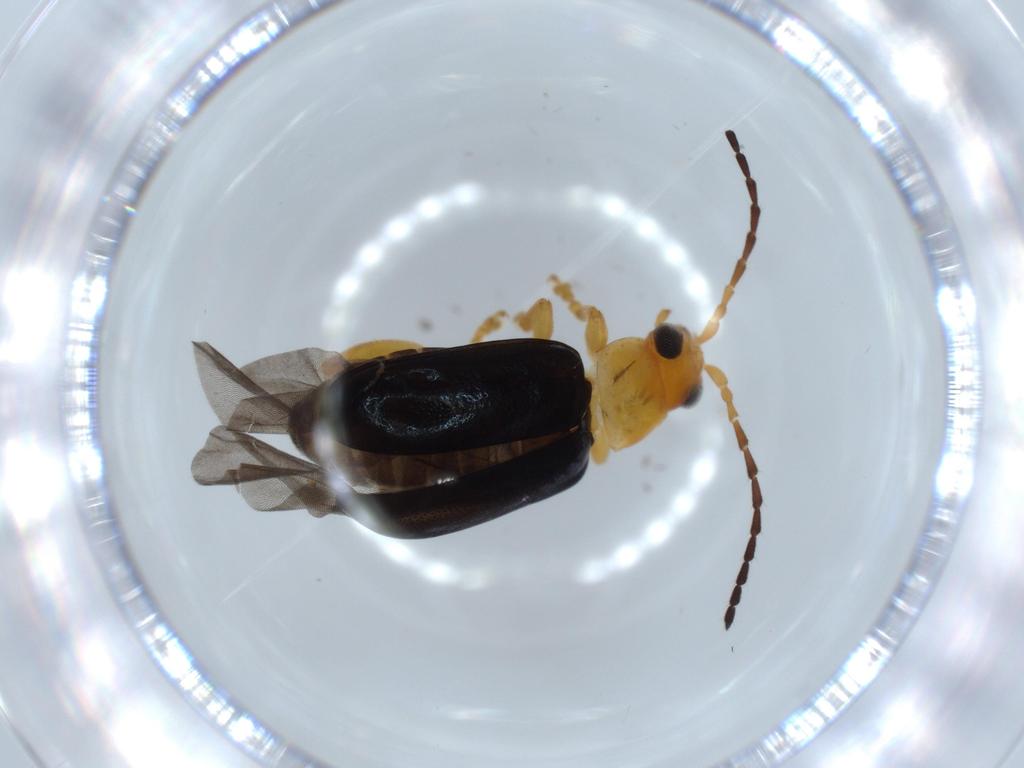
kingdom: Animalia
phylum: Arthropoda
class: Insecta
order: Coleoptera
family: Chrysomelidae
